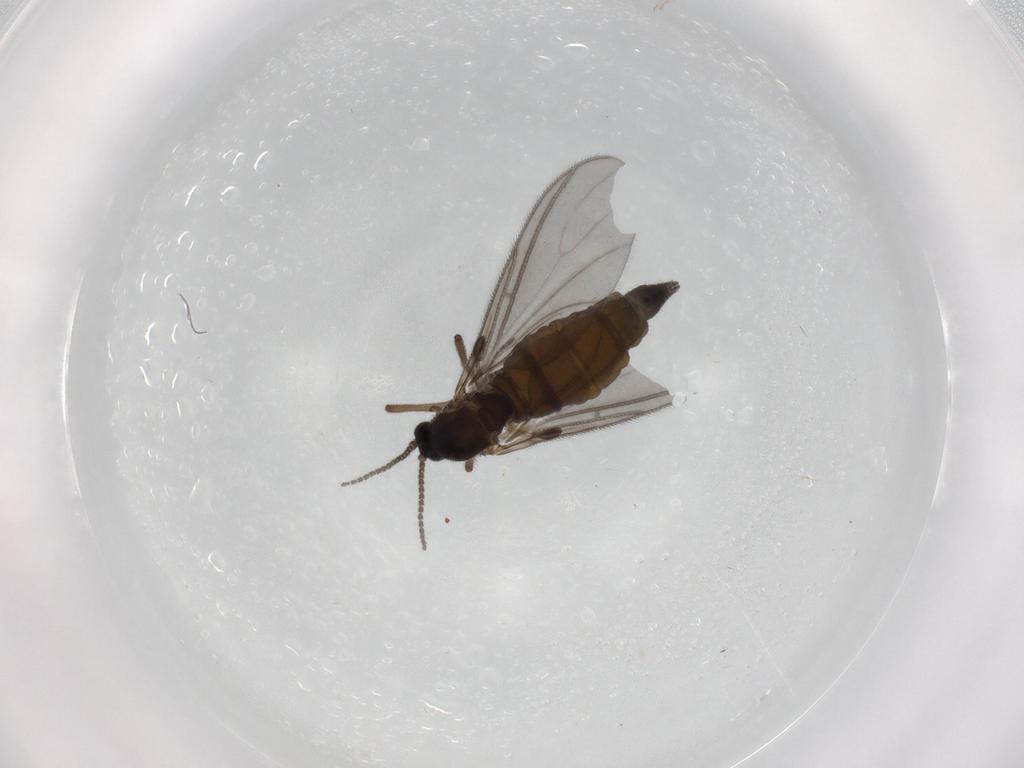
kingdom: Animalia
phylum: Arthropoda
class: Insecta
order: Diptera
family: Sciaridae
